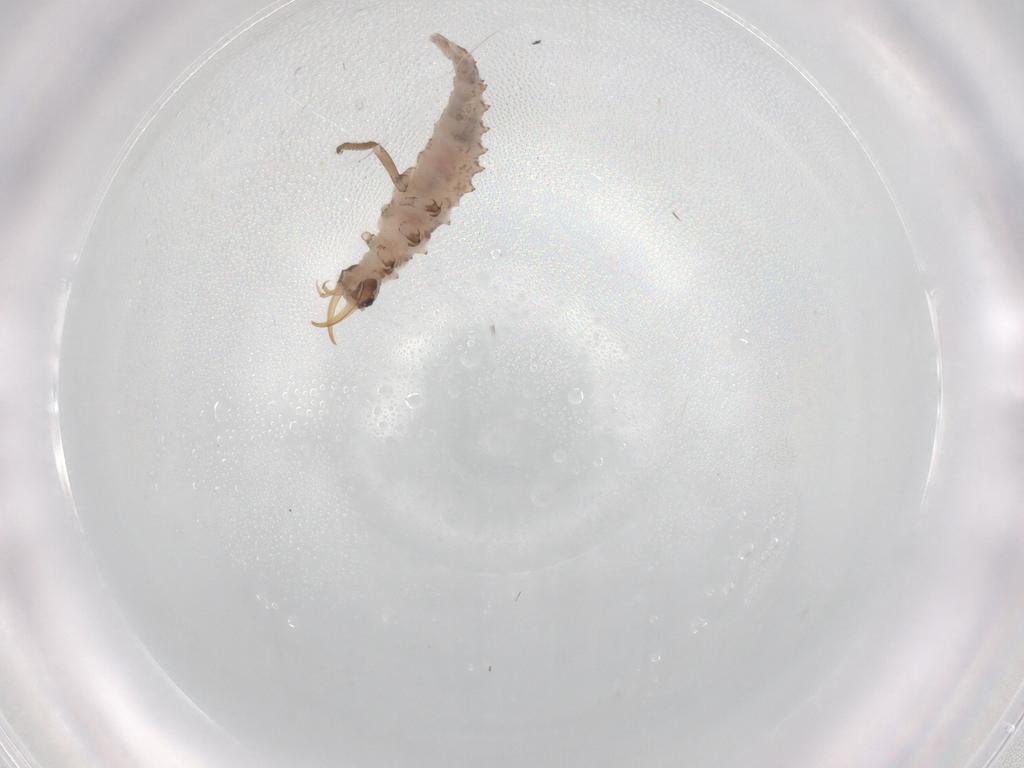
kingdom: Animalia
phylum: Arthropoda
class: Insecta
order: Neuroptera
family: Chrysopidae
